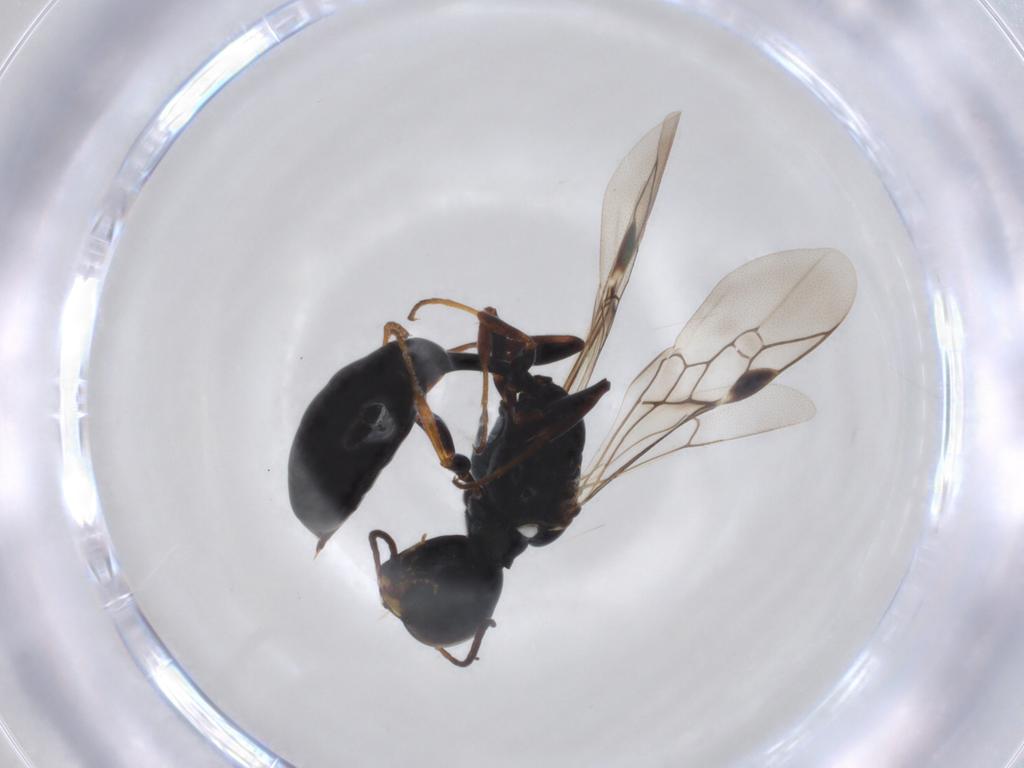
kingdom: Animalia
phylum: Arthropoda
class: Insecta
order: Hymenoptera
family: Crabronidae
